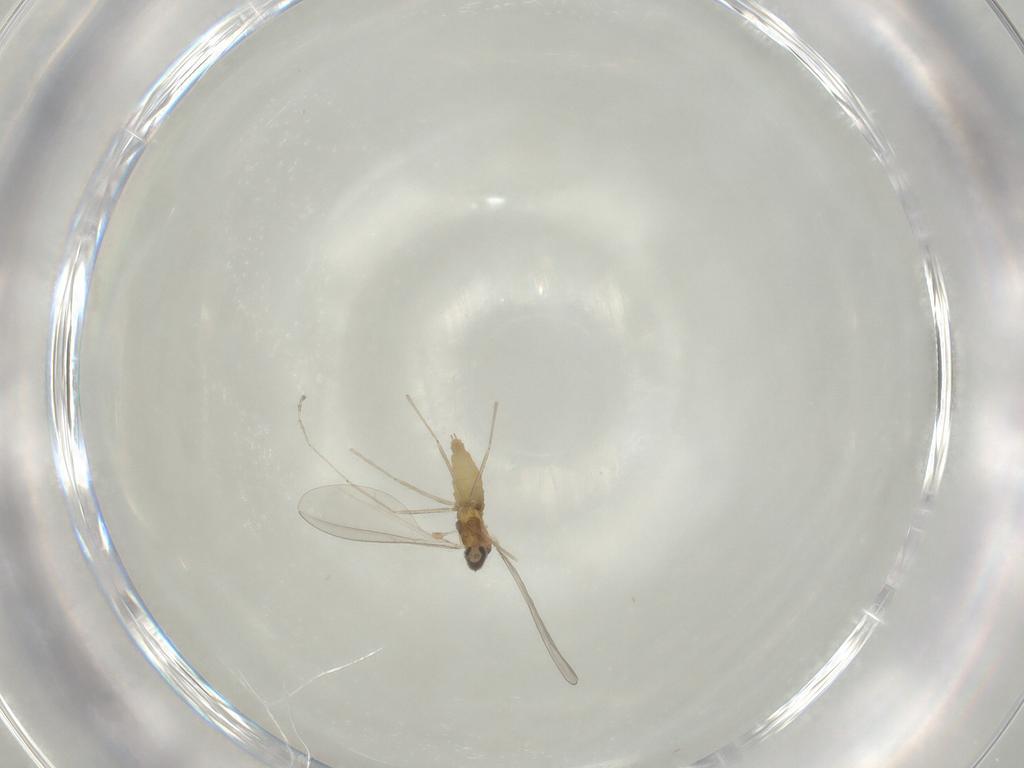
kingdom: Animalia
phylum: Arthropoda
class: Insecta
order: Diptera
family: Cecidomyiidae
